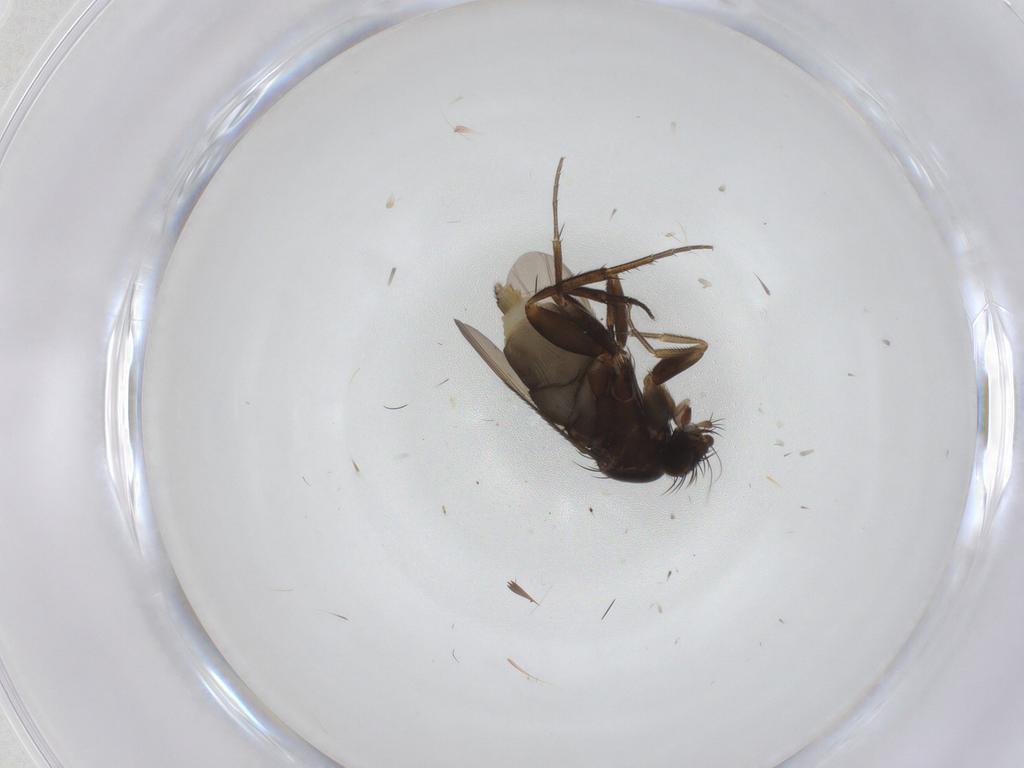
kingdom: Animalia
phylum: Arthropoda
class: Insecta
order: Diptera
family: Phoridae
